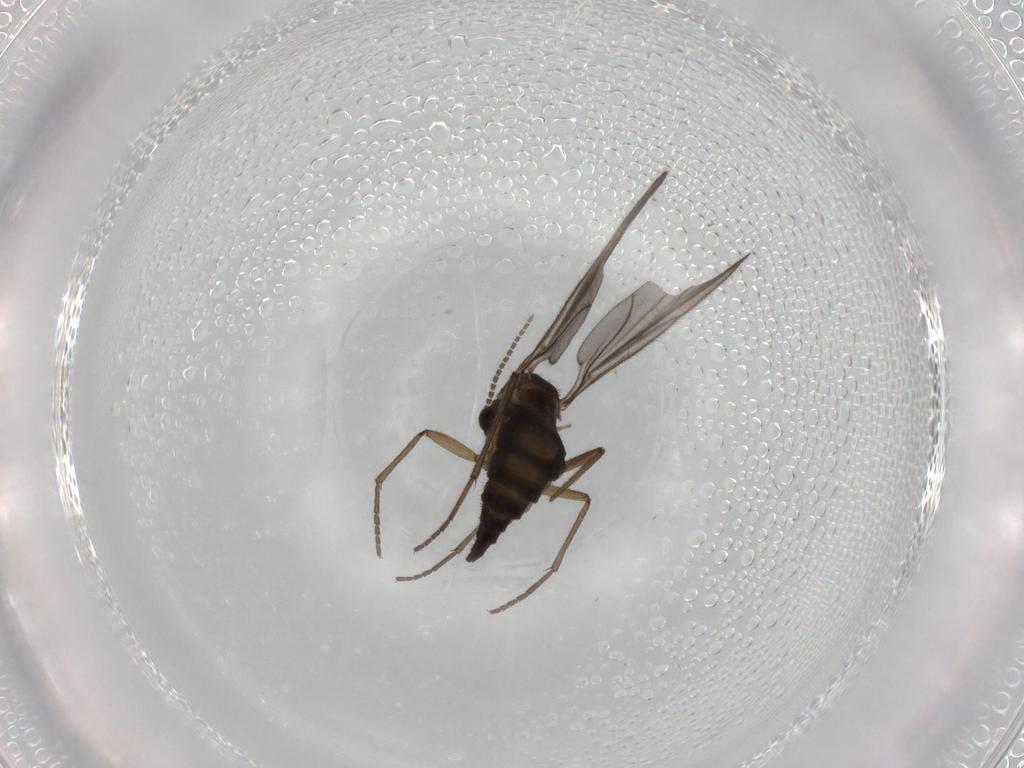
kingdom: Animalia
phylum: Arthropoda
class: Insecta
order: Diptera
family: Sciaridae
